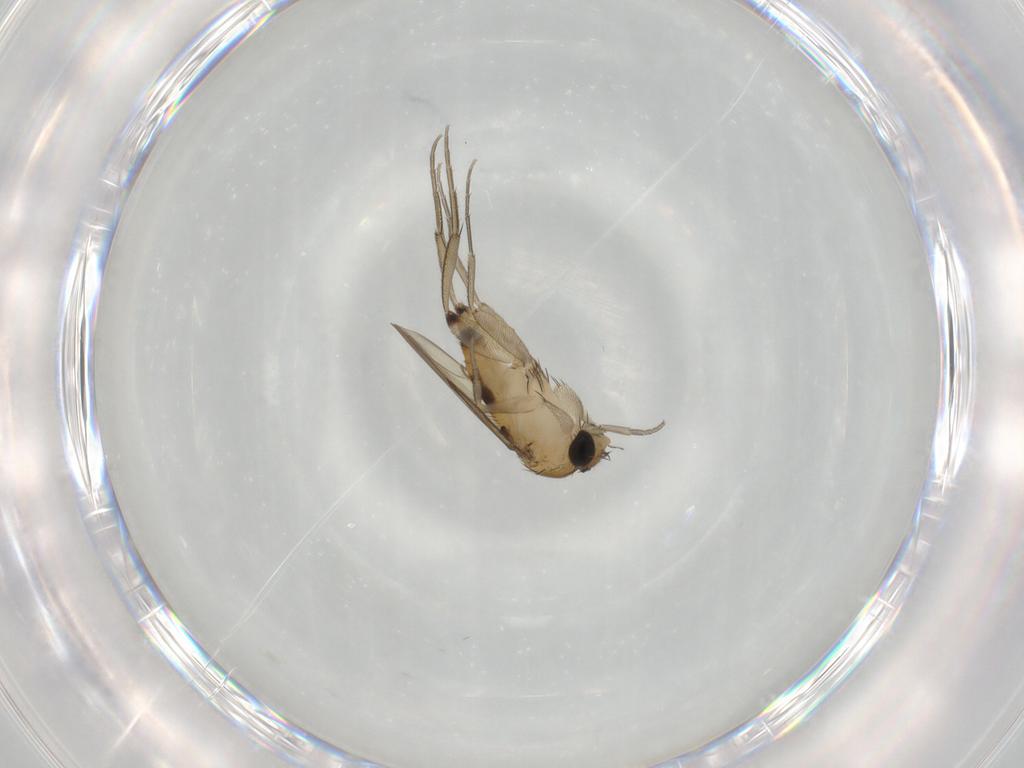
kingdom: Animalia
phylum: Arthropoda
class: Insecta
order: Diptera
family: Phoridae
